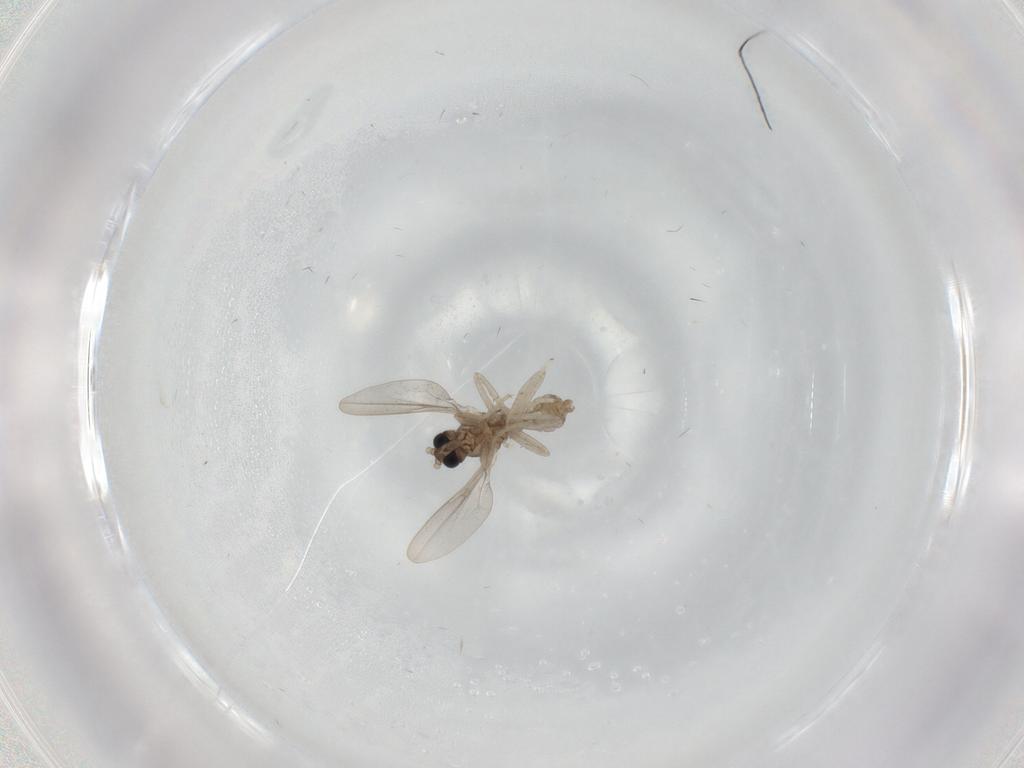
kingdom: Animalia
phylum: Arthropoda
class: Insecta
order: Diptera
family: Cecidomyiidae
